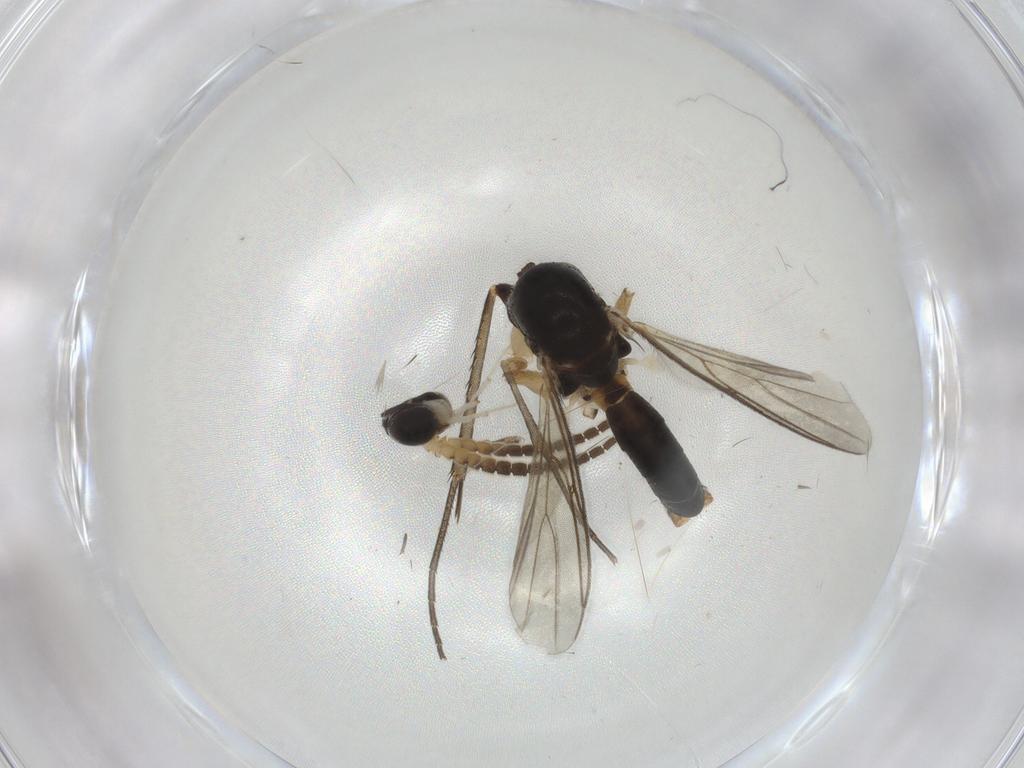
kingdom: Animalia
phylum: Arthropoda
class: Insecta
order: Diptera
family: Mycetophilidae
